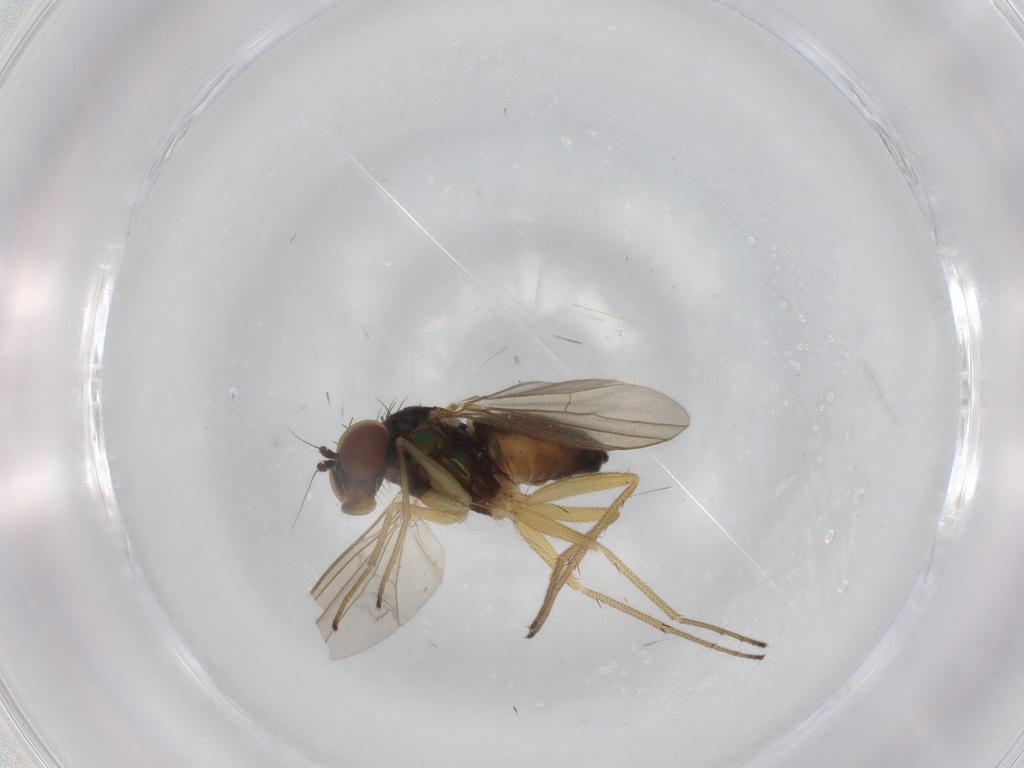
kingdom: Animalia
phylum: Arthropoda
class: Insecta
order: Diptera
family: Dolichopodidae
